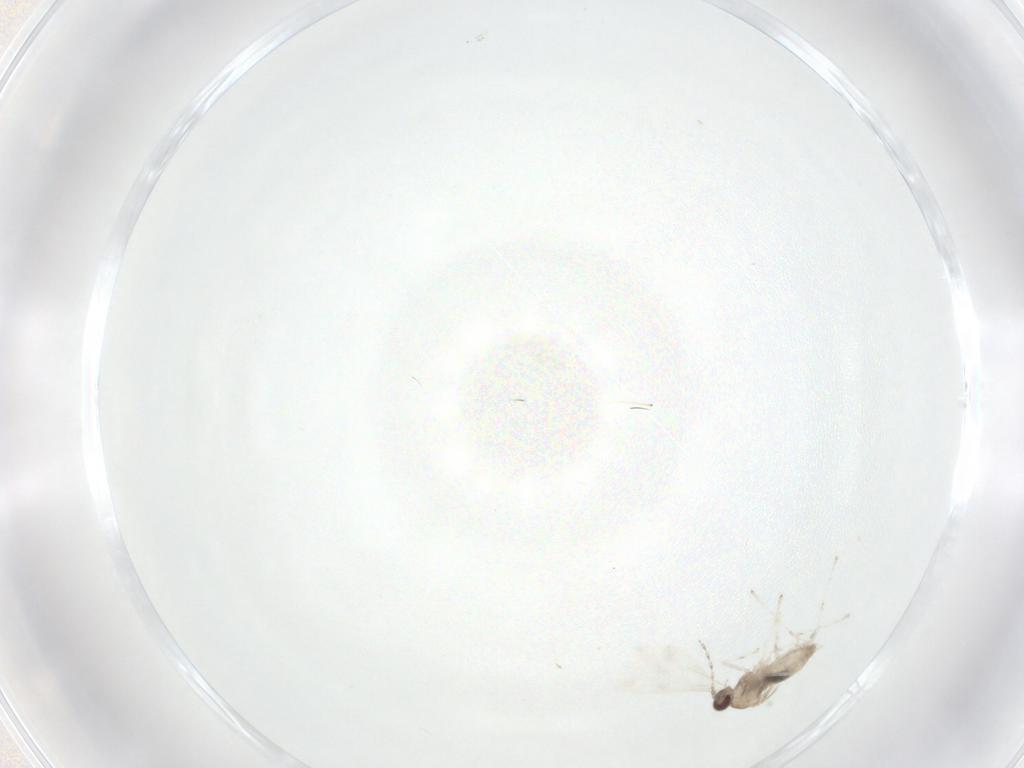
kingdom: Animalia
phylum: Arthropoda
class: Insecta
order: Diptera
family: Cecidomyiidae
